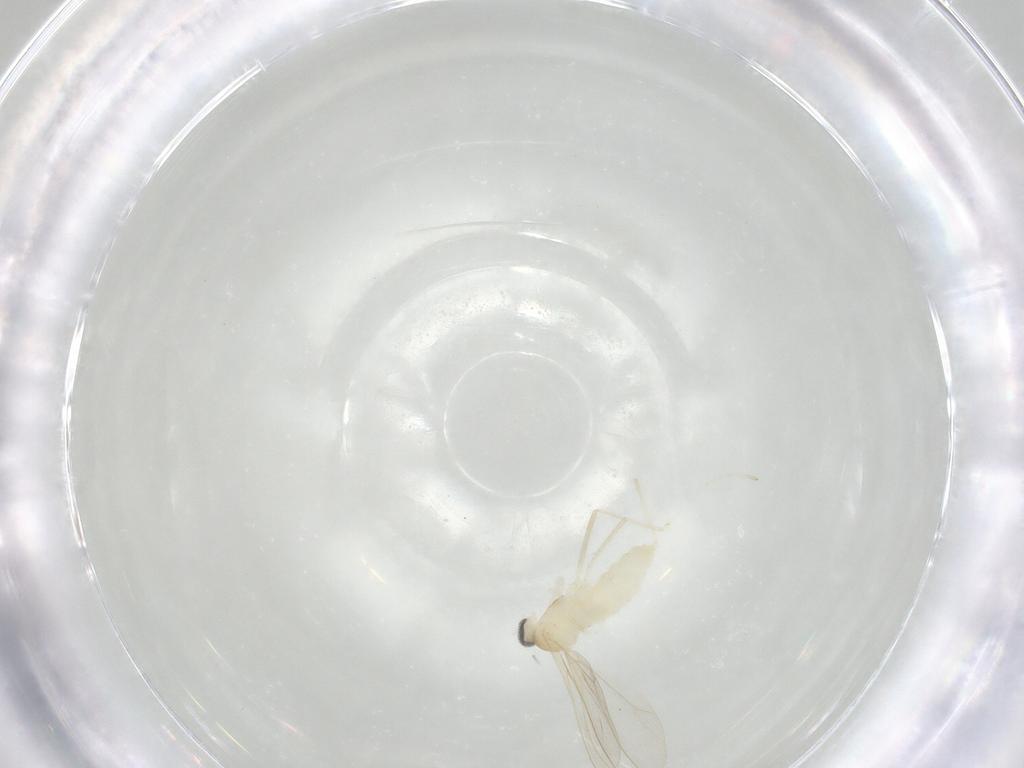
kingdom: Animalia
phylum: Arthropoda
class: Insecta
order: Diptera
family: Cecidomyiidae
